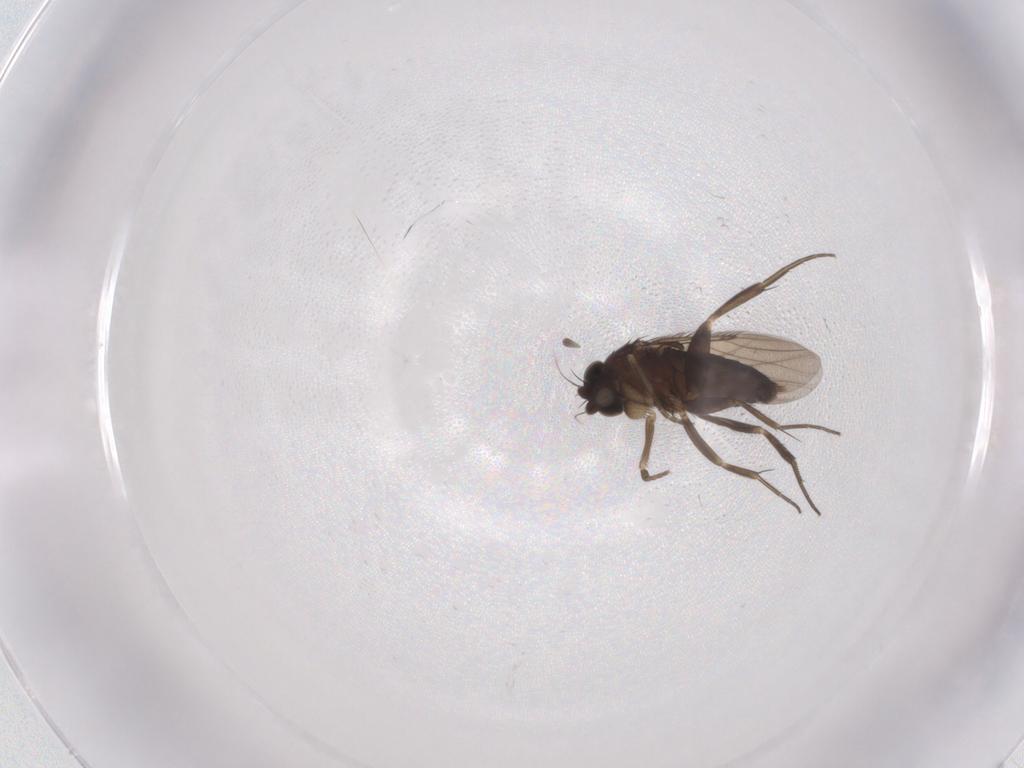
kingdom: Animalia
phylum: Arthropoda
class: Insecta
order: Diptera
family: Phoridae
